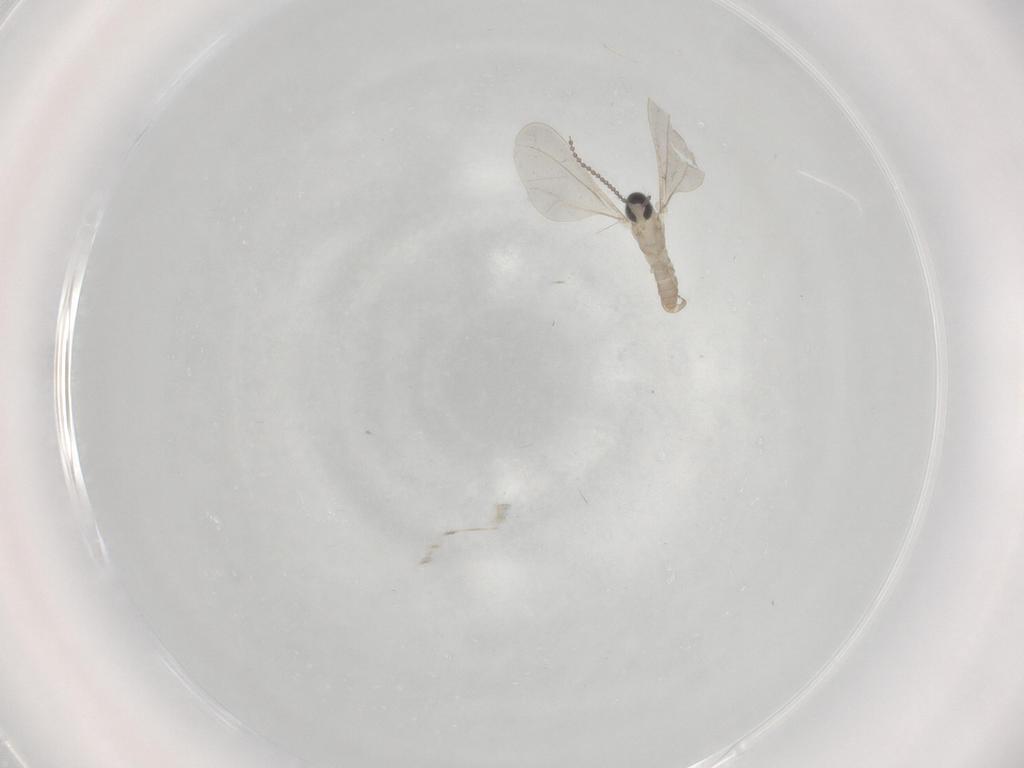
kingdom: Animalia
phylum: Arthropoda
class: Insecta
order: Diptera
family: Cecidomyiidae
